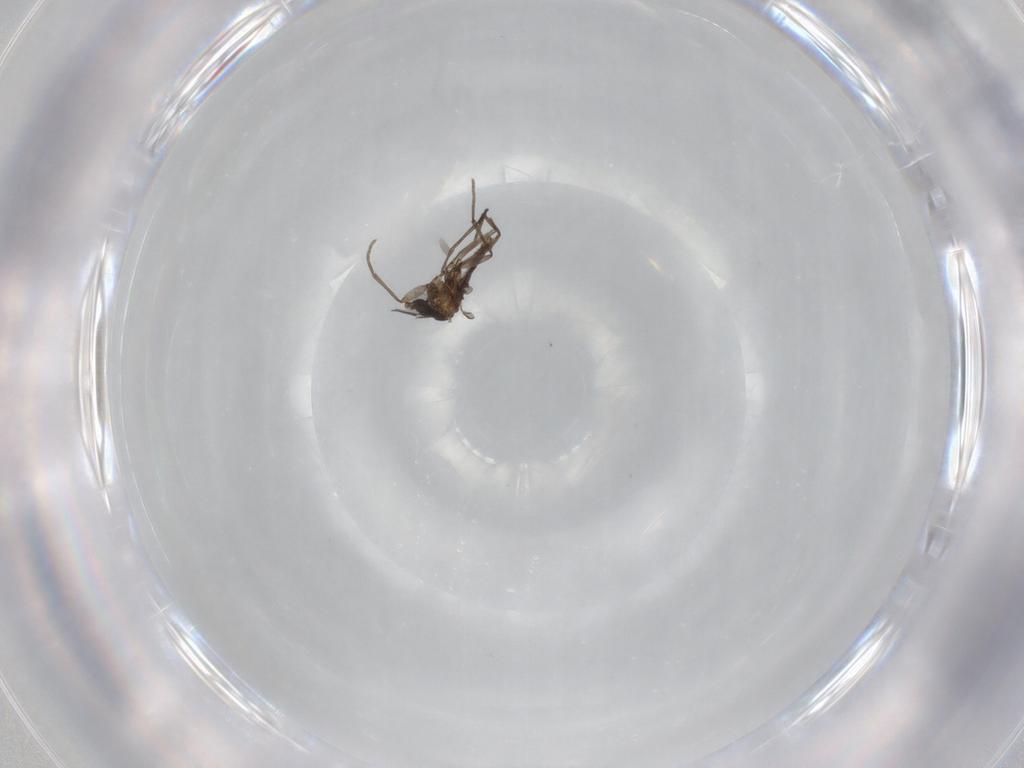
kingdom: Animalia
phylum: Arthropoda
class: Insecta
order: Diptera
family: Sciaridae
